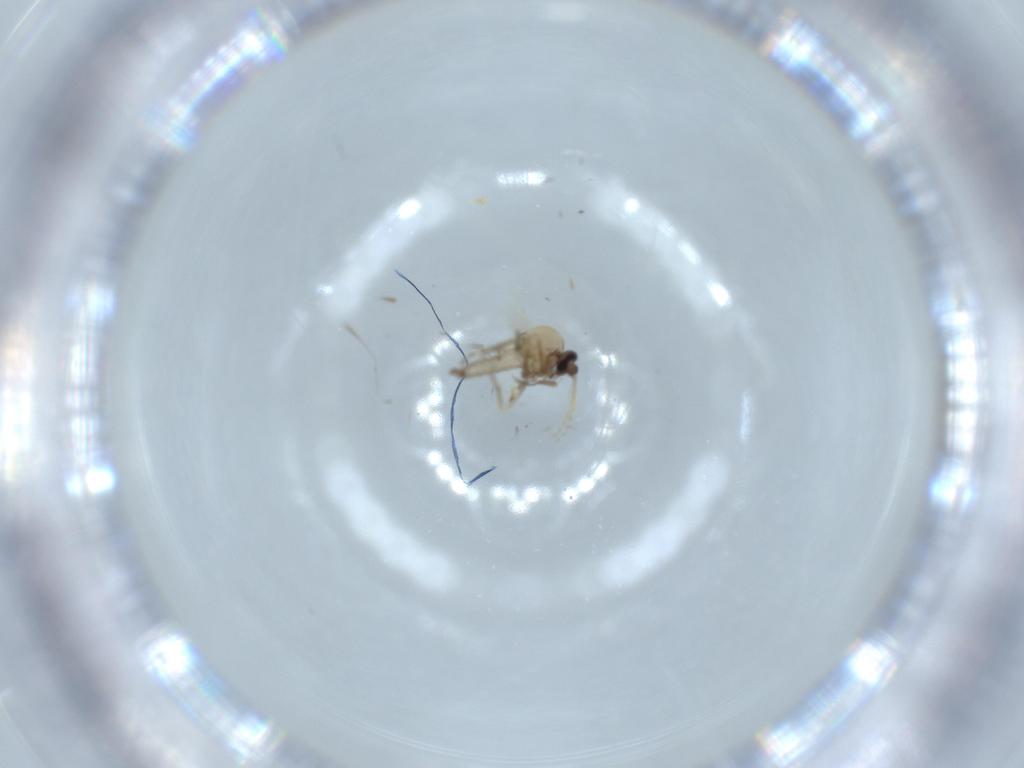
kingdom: Animalia
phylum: Arthropoda
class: Insecta
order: Diptera
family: Ceratopogonidae
